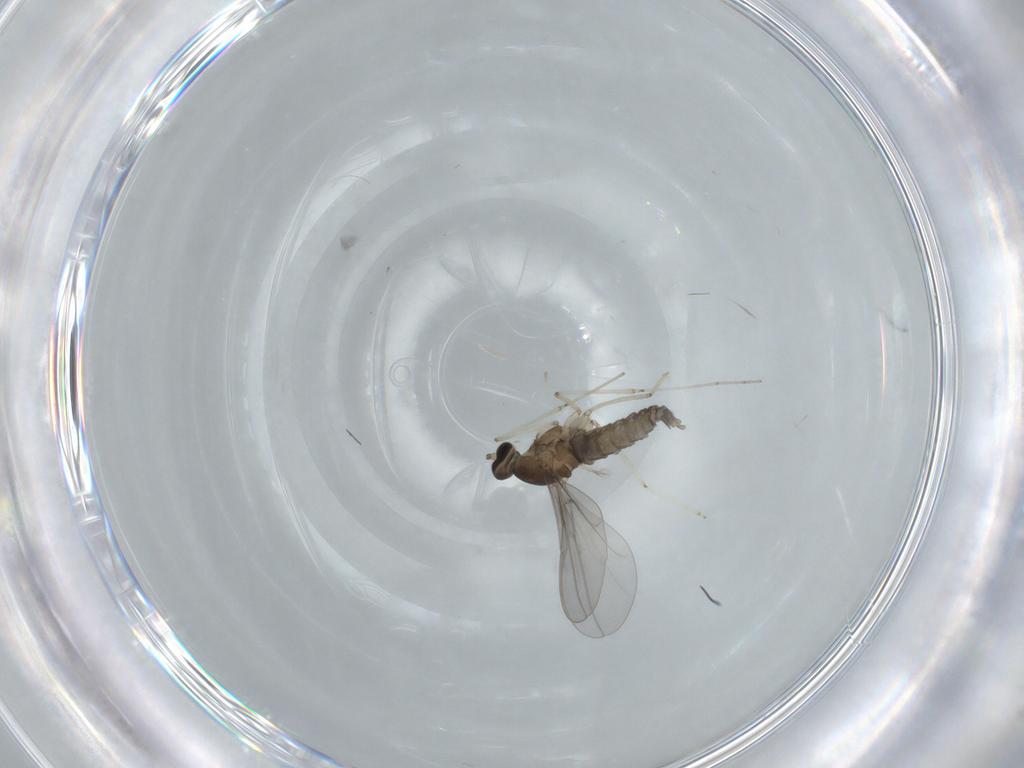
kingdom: Animalia
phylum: Arthropoda
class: Insecta
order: Diptera
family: Cecidomyiidae
